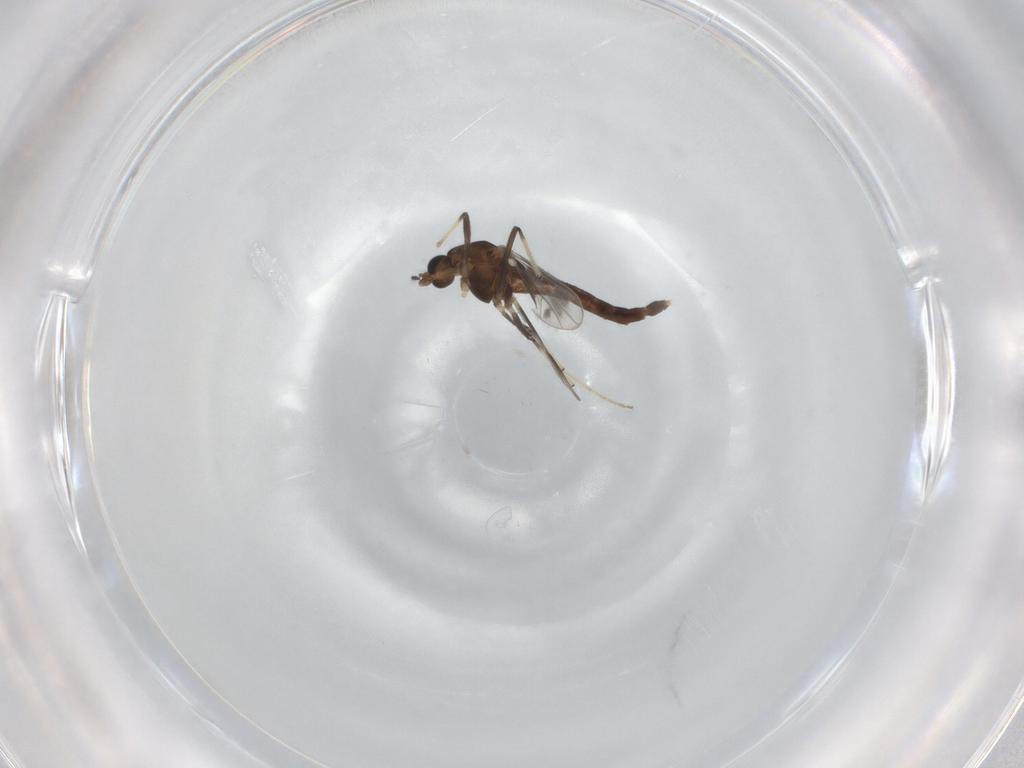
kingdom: Animalia
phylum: Arthropoda
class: Insecta
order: Diptera
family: Chironomidae
